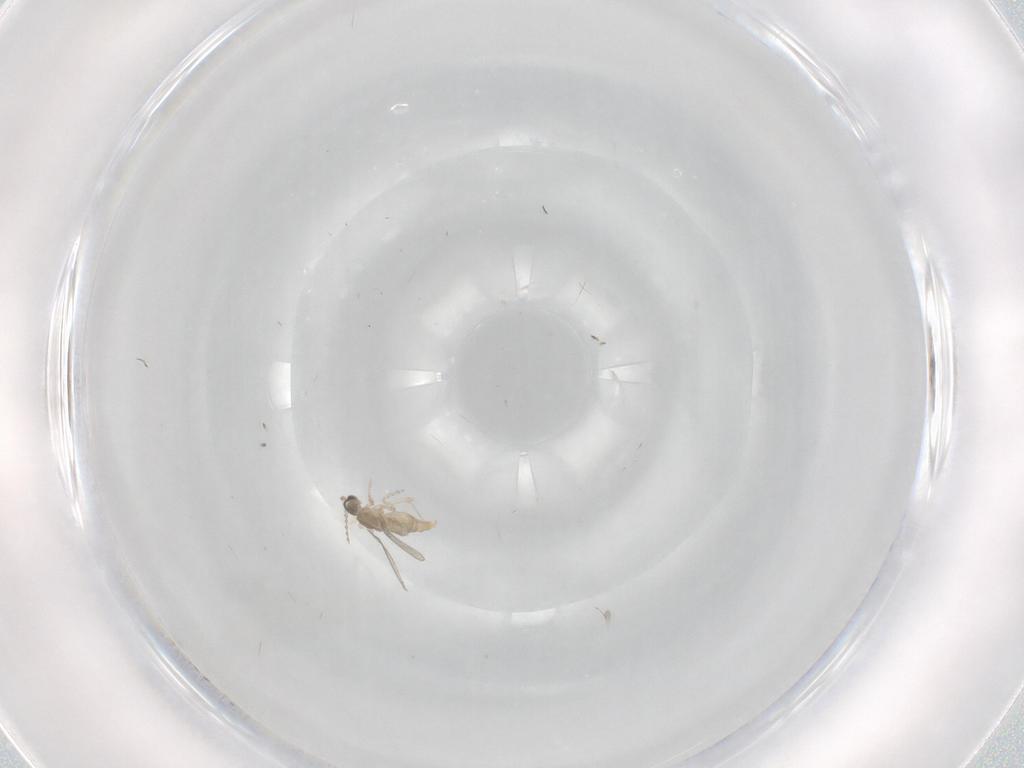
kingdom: Animalia
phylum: Arthropoda
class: Insecta
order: Diptera
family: Cecidomyiidae
